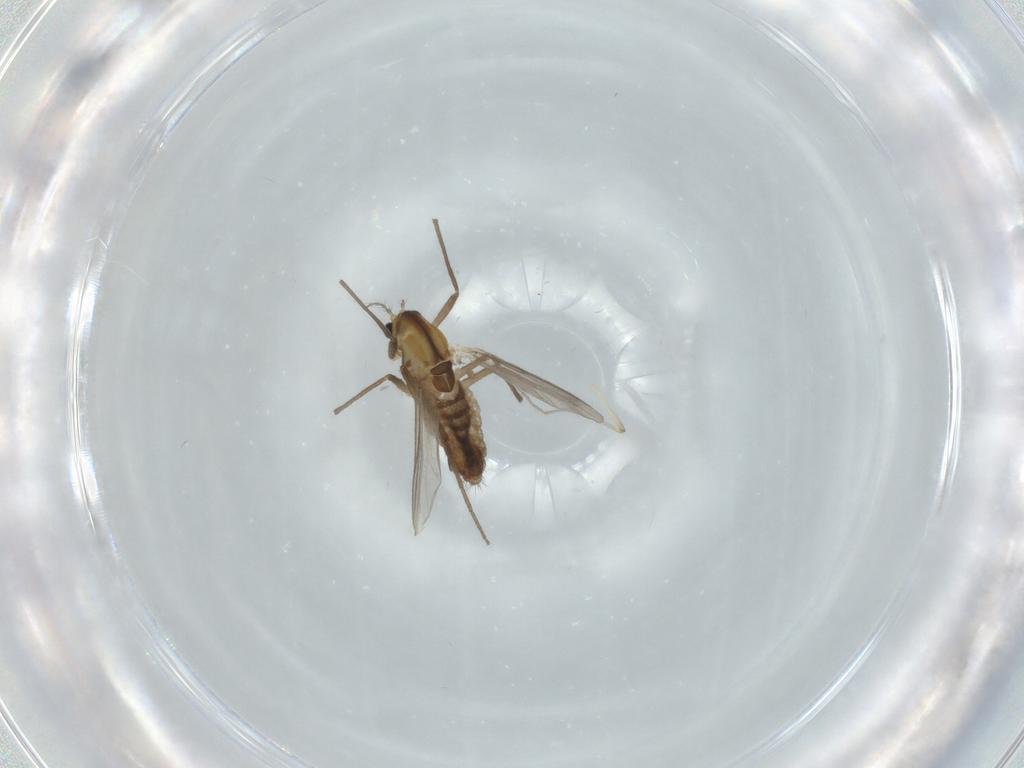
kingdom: Animalia
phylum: Arthropoda
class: Insecta
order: Diptera
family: Chironomidae
